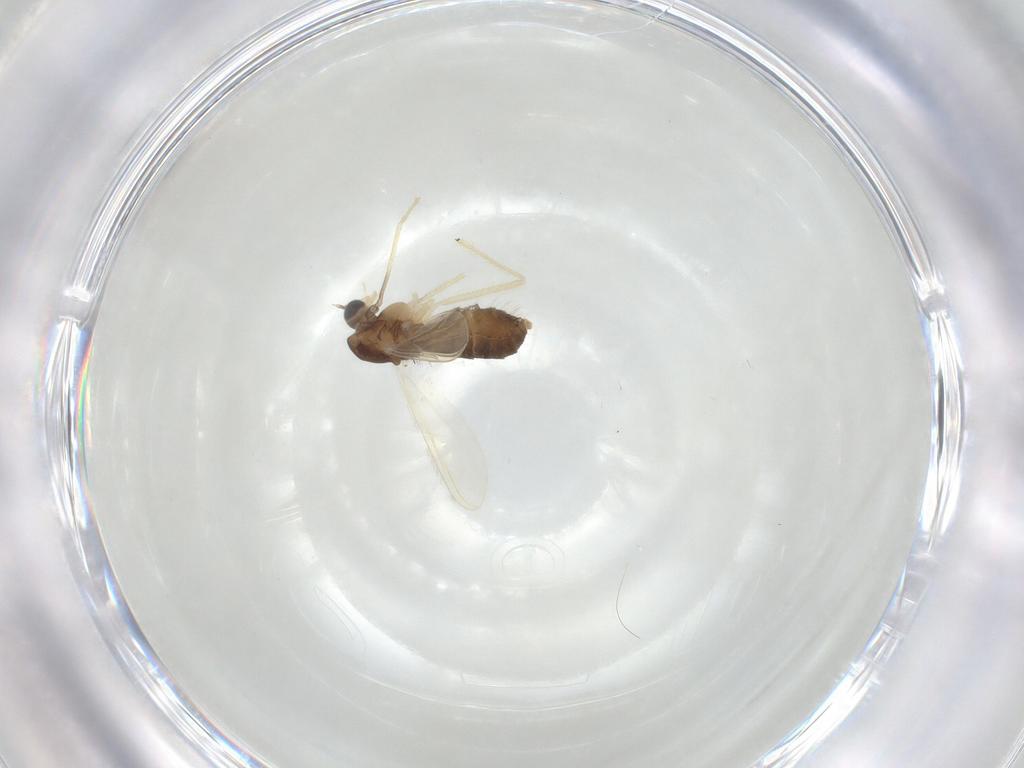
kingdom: Animalia
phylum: Arthropoda
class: Insecta
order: Diptera
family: Chironomidae
